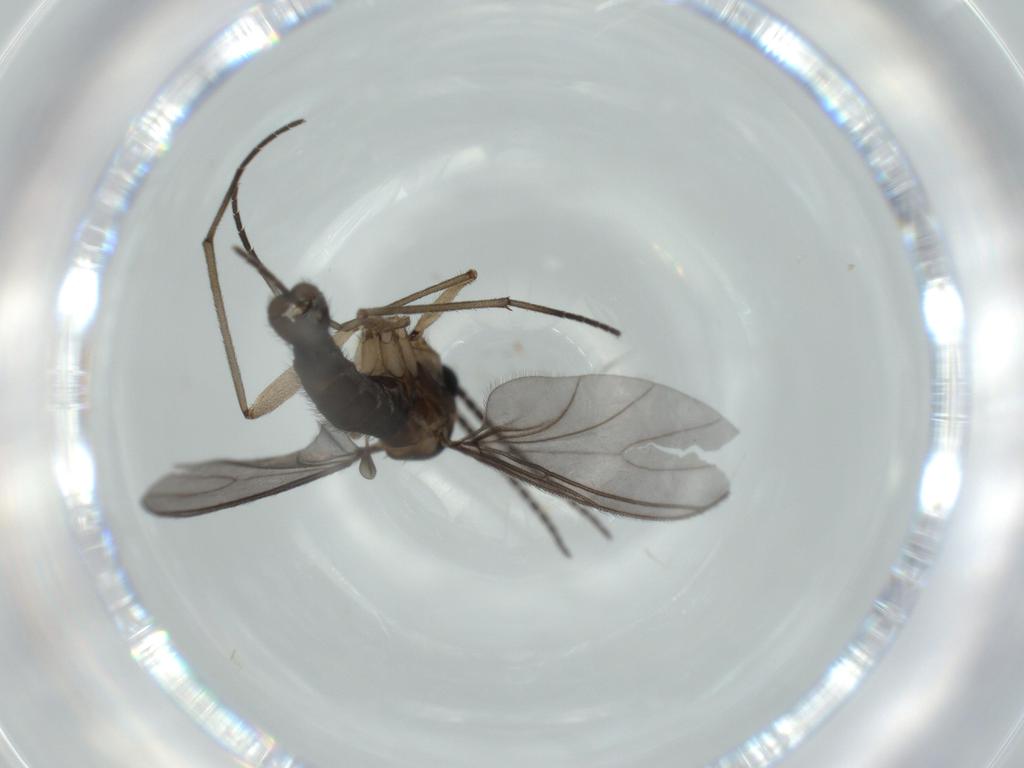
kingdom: Animalia
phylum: Arthropoda
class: Insecta
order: Diptera
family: Sciaridae
